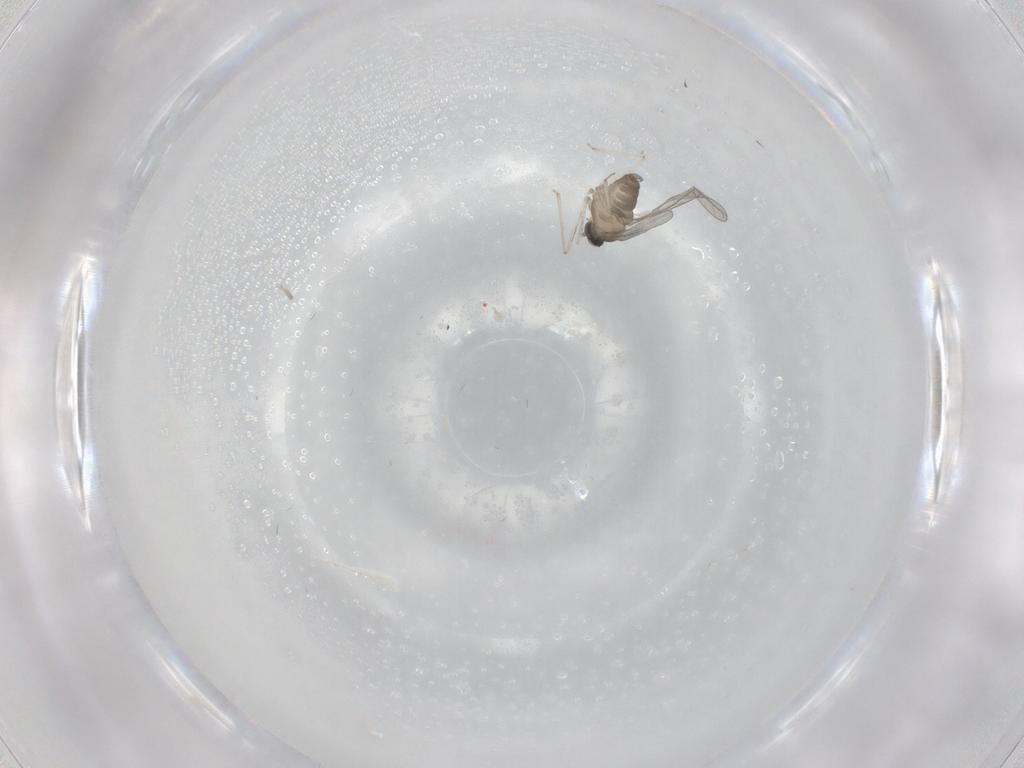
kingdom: Animalia
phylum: Arthropoda
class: Insecta
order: Diptera
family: Cecidomyiidae
